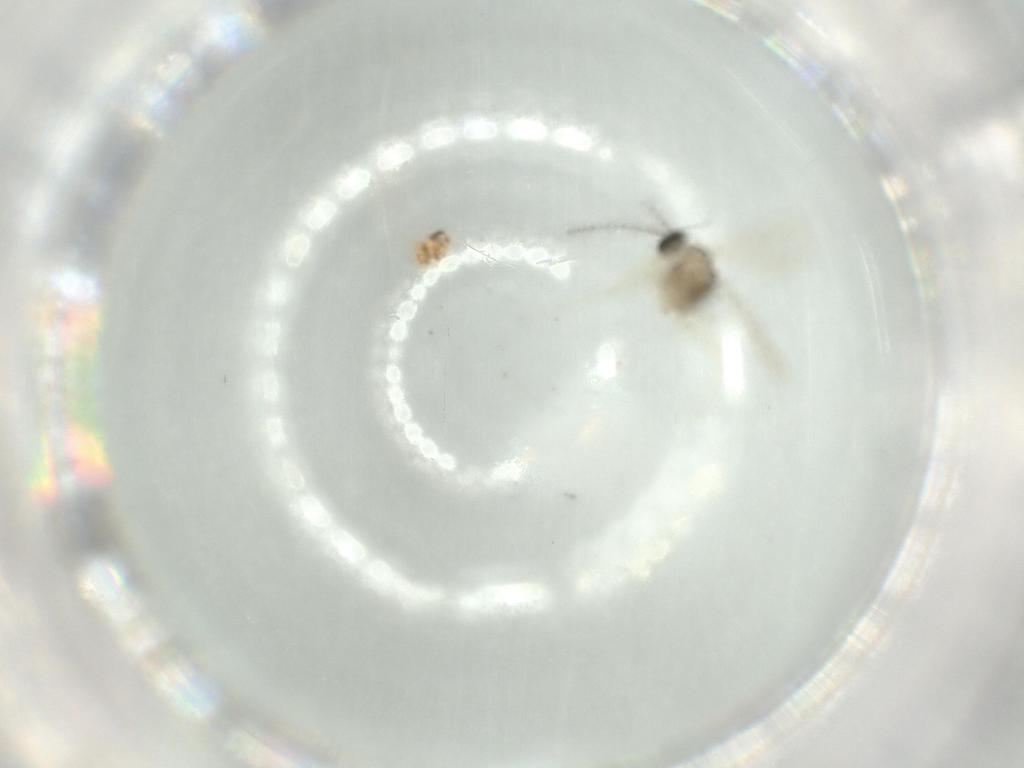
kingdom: Animalia
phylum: Arthropoda
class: Insecta
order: Diptera
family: Cecidomyiidae
